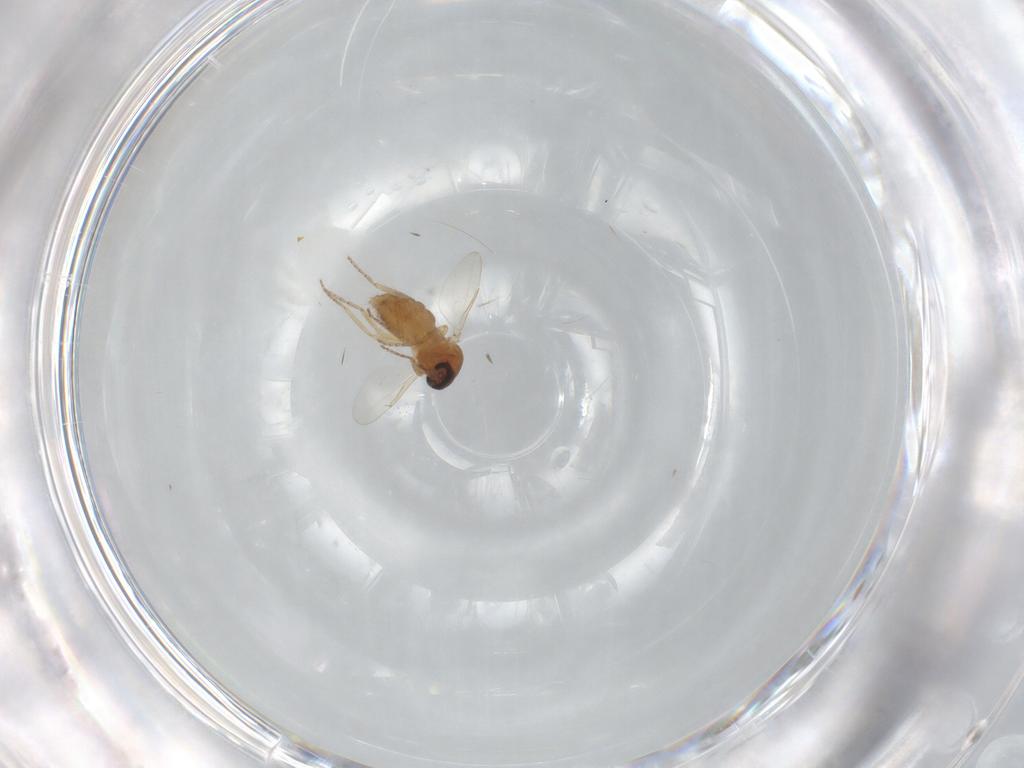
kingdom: Animalia
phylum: Arthropoda
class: Insecta
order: Diptera
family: Ceratopogonidae
